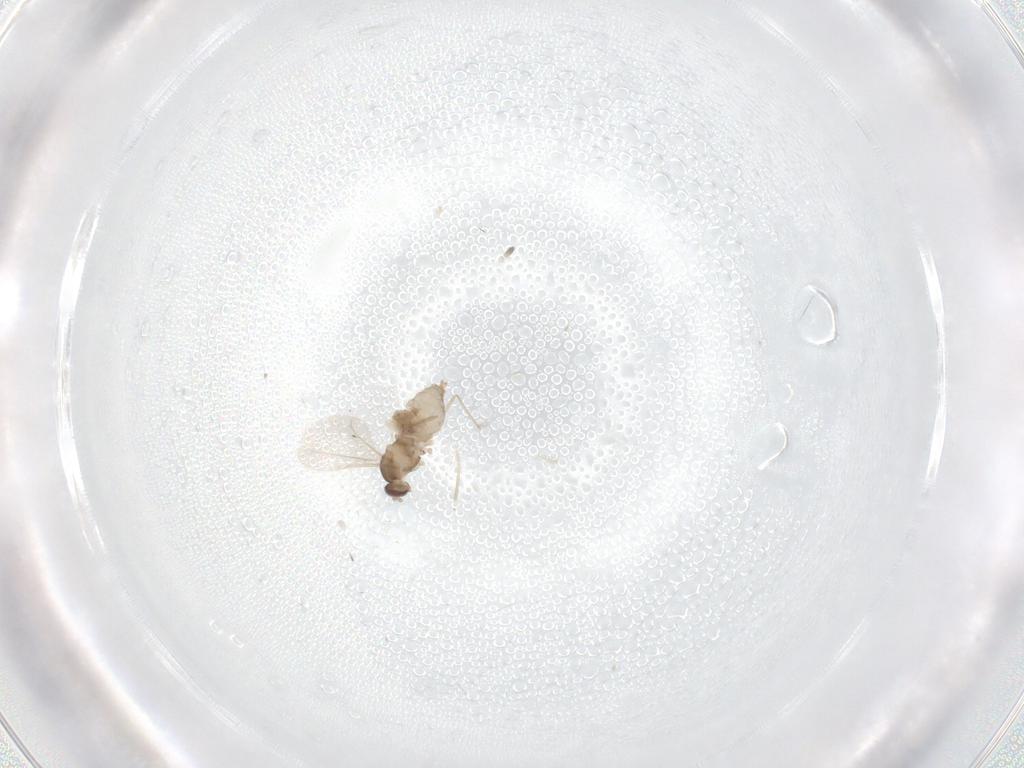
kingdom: Animalia
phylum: Arthropoda
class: Insecta
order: Diptera
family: Cecidomyiidae
